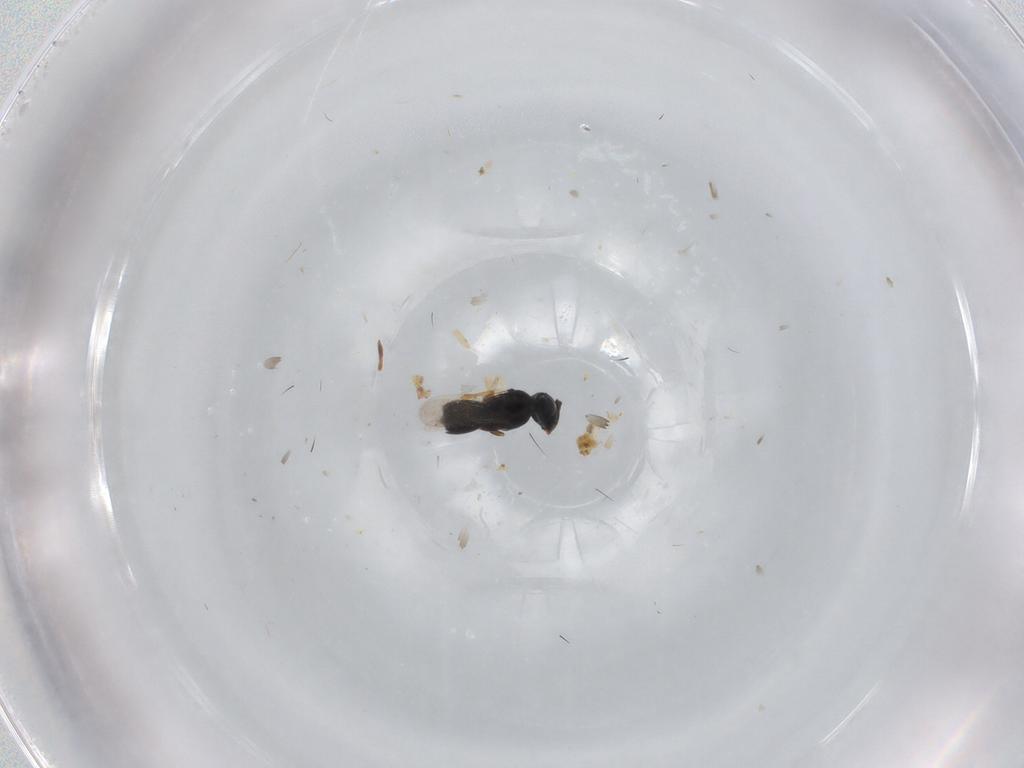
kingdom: Animalia
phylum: Arthropoda
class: Insecta
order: Hymenoptera
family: Scelionidae
